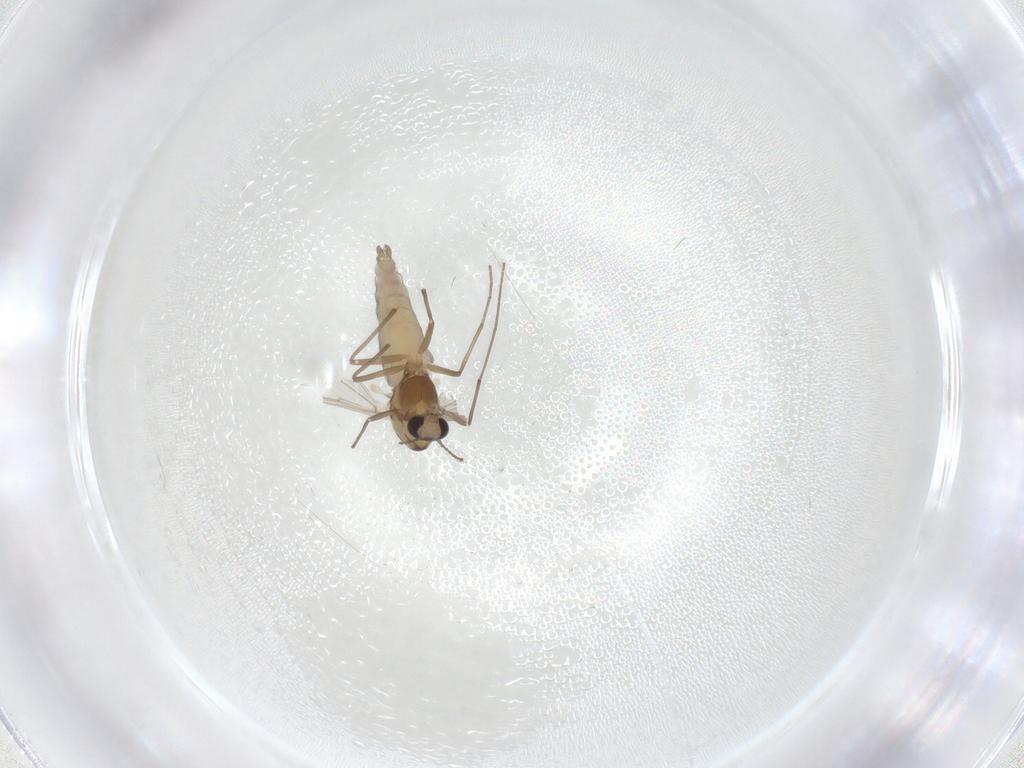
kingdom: Animalia
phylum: Arthropoda
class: Insecta
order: Diptera
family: Chironomidae
